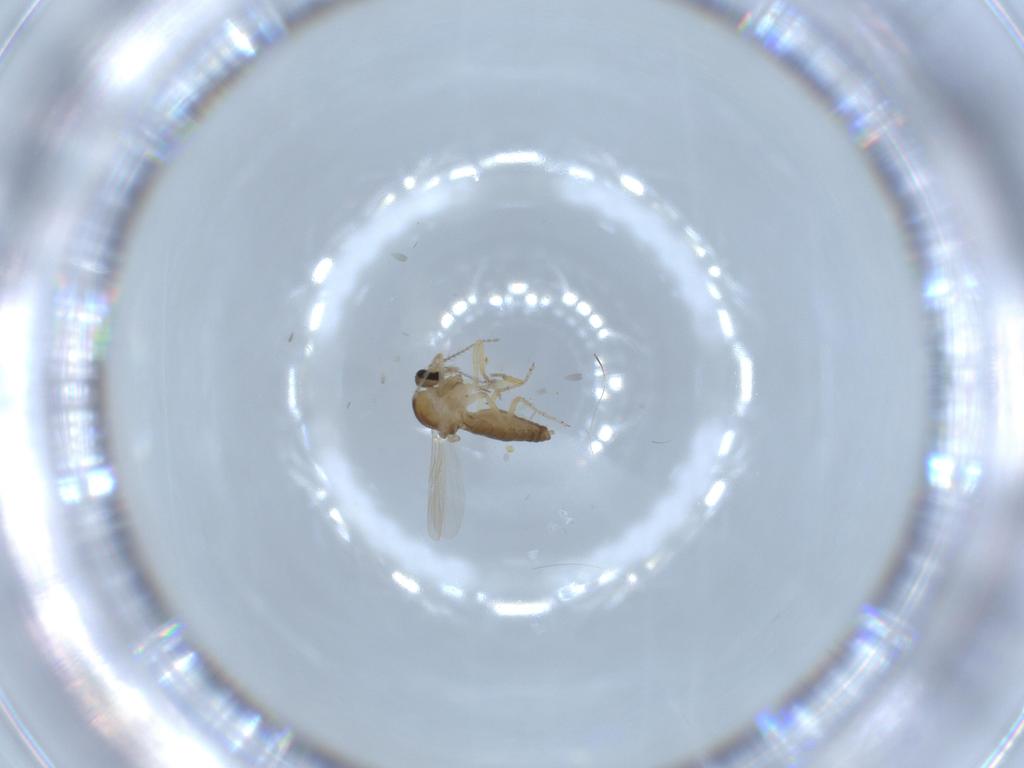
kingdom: Animalia
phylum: Arthropoda
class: Insecta
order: Diptera
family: Ceratopogonidae
